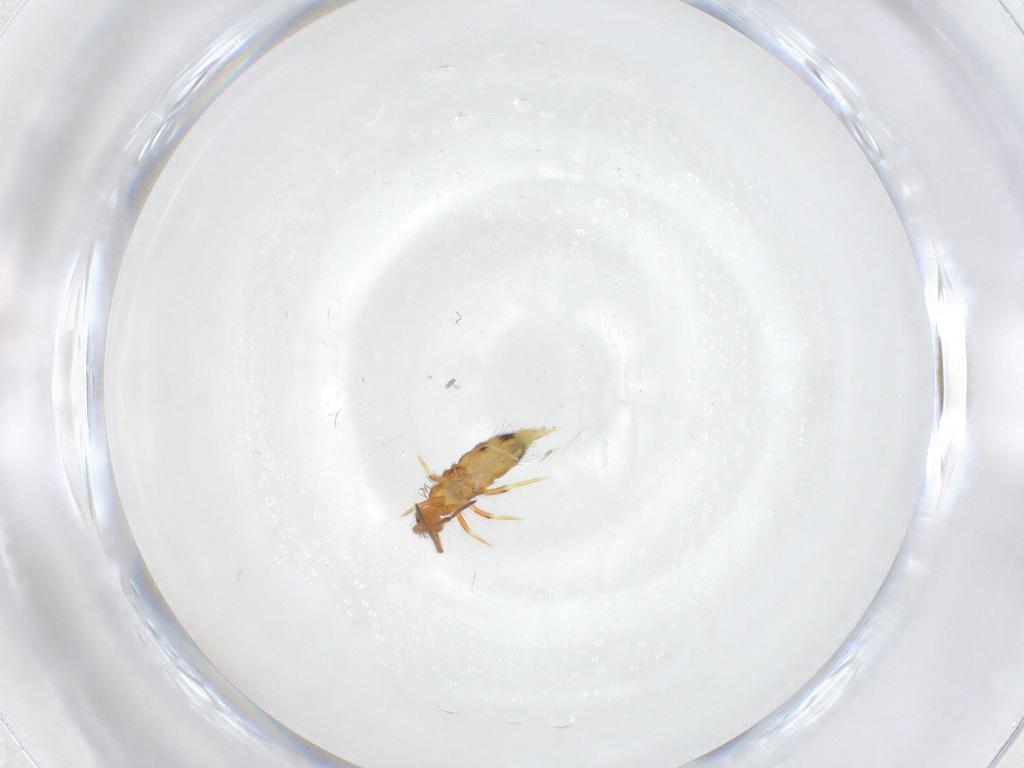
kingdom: Animalia
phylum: Arthropoda
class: Collembola
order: Entomobryomorpha
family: Entomobryidae
